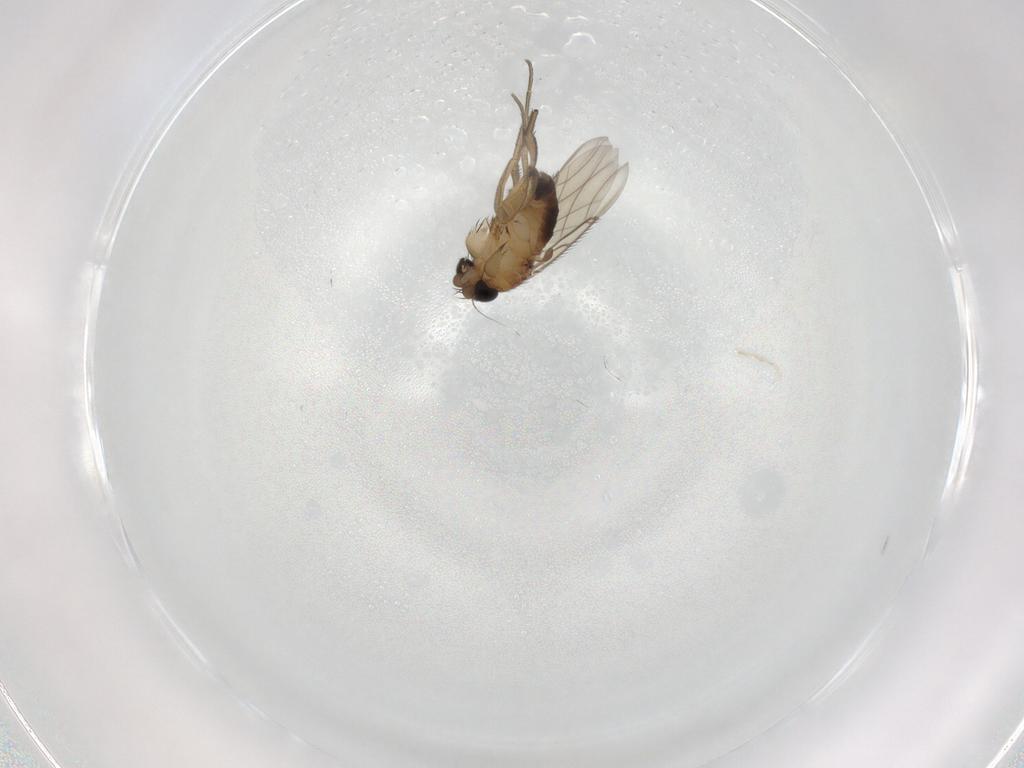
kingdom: Animalia
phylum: Arthropoda
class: Insecta
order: Diptera
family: Phoridae
